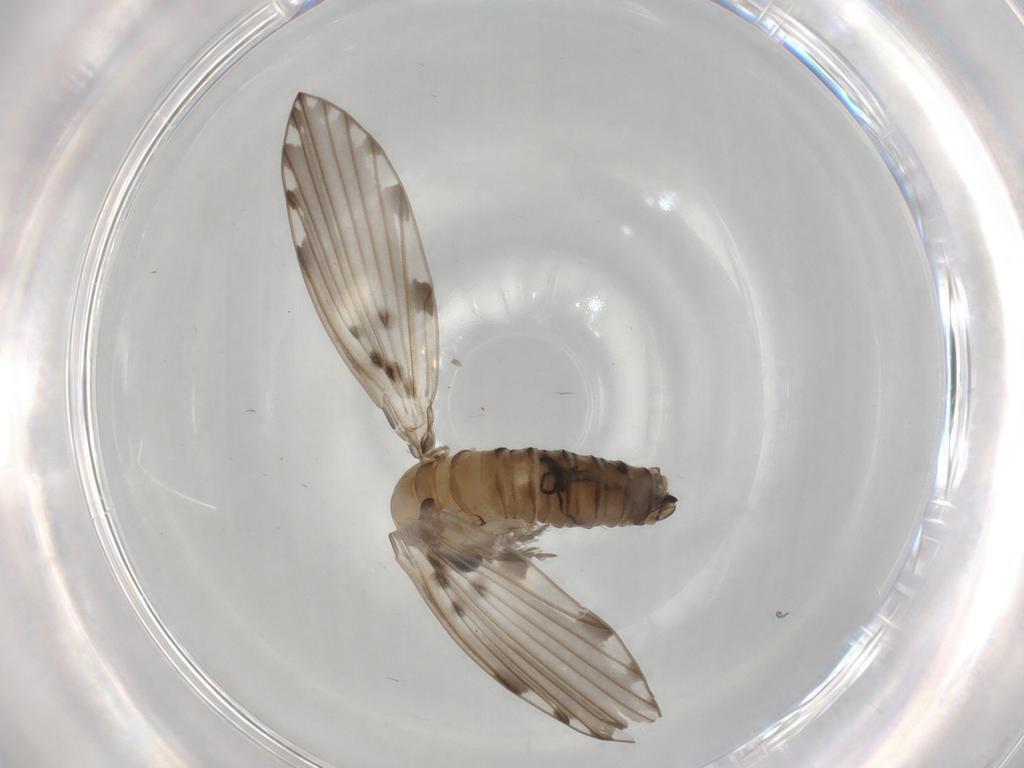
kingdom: Animalia
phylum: Arthropoda
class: Insecta
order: Diptera
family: Psychodidae
